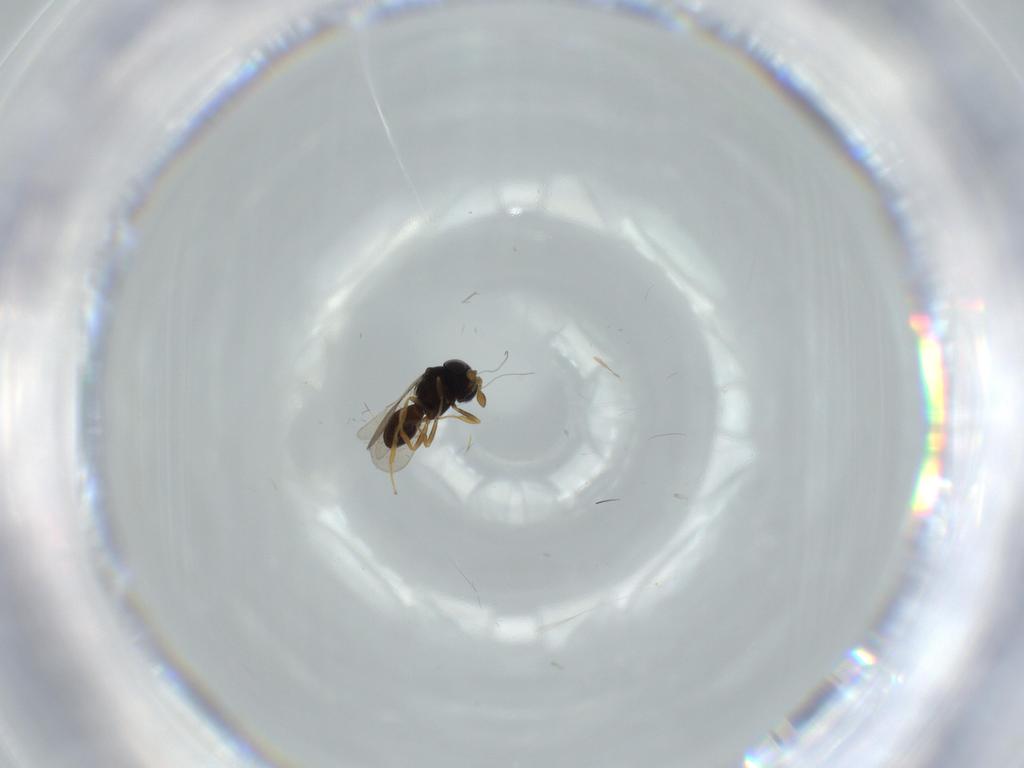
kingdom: Animalia
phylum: Arthropoda
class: Insecta
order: Hymenoptera
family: Scelionidae
